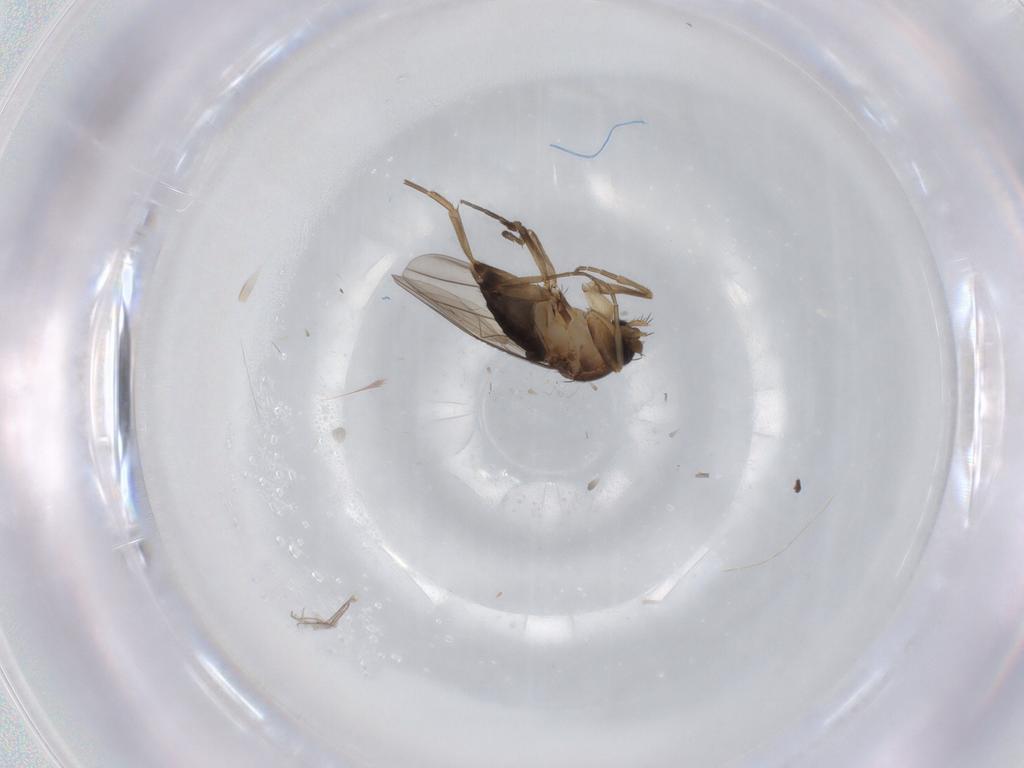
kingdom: Animalia
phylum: Arthropoda
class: Insecta
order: Diptera
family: Phoridae
